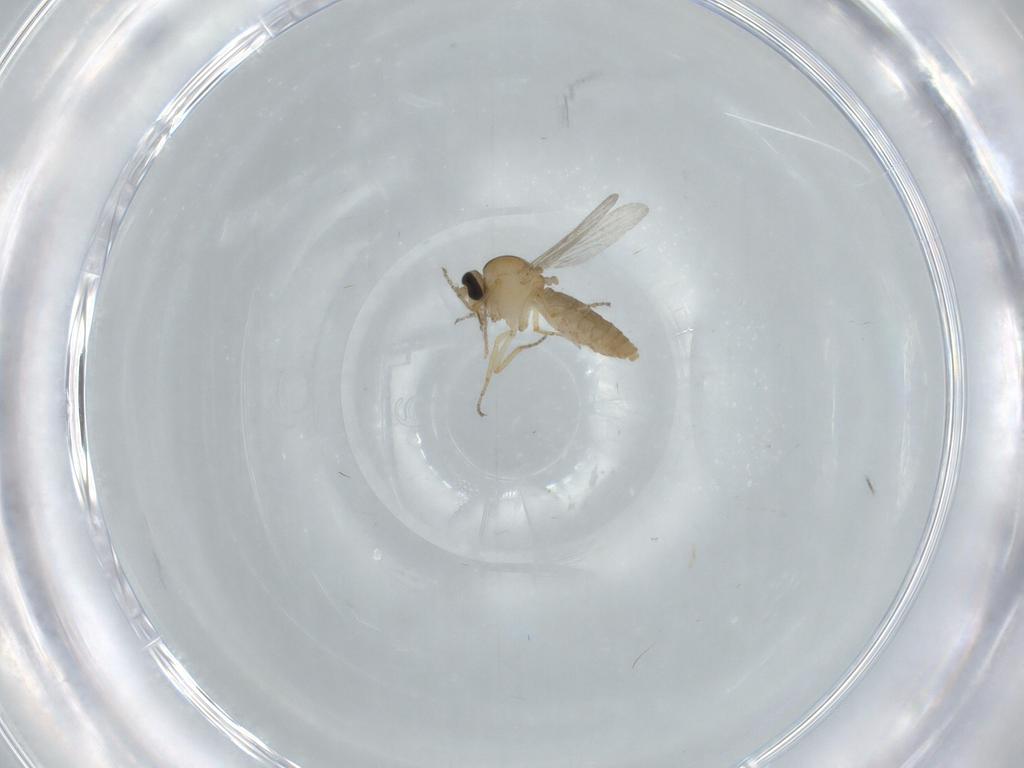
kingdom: Animalia
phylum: Arthropoda
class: Insecta
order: Diptera
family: Ceratopogonidae
